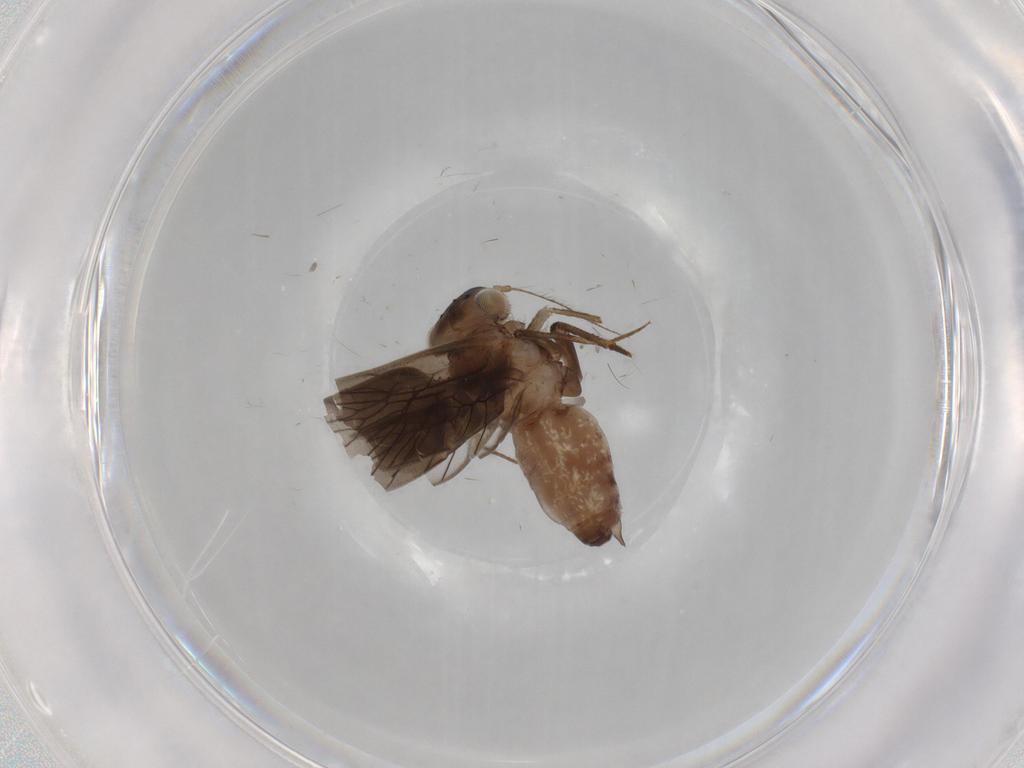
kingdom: Animalia
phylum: Arthropoda
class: Insecta
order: Psocodea
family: Lepidopsocidae
